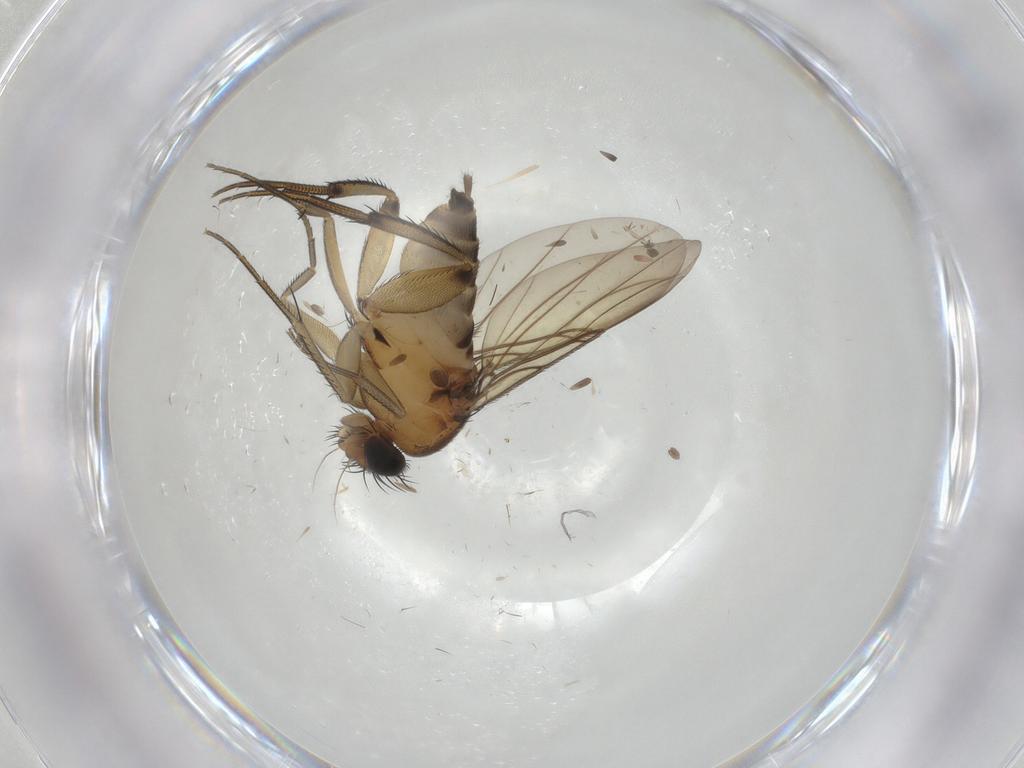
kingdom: Animalia
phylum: Arthropoda
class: Insecta
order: Diptera
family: Phoridae
